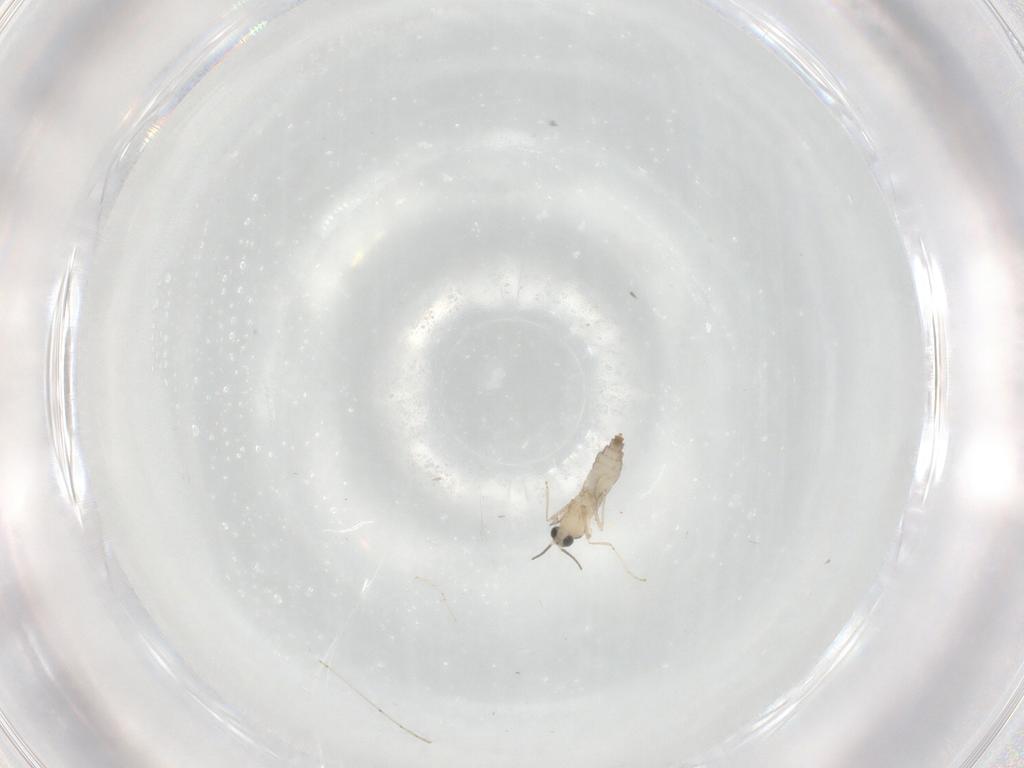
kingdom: Animalia
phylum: Arthropoda
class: Insecta
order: Diptera
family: Cecidomyiidae
